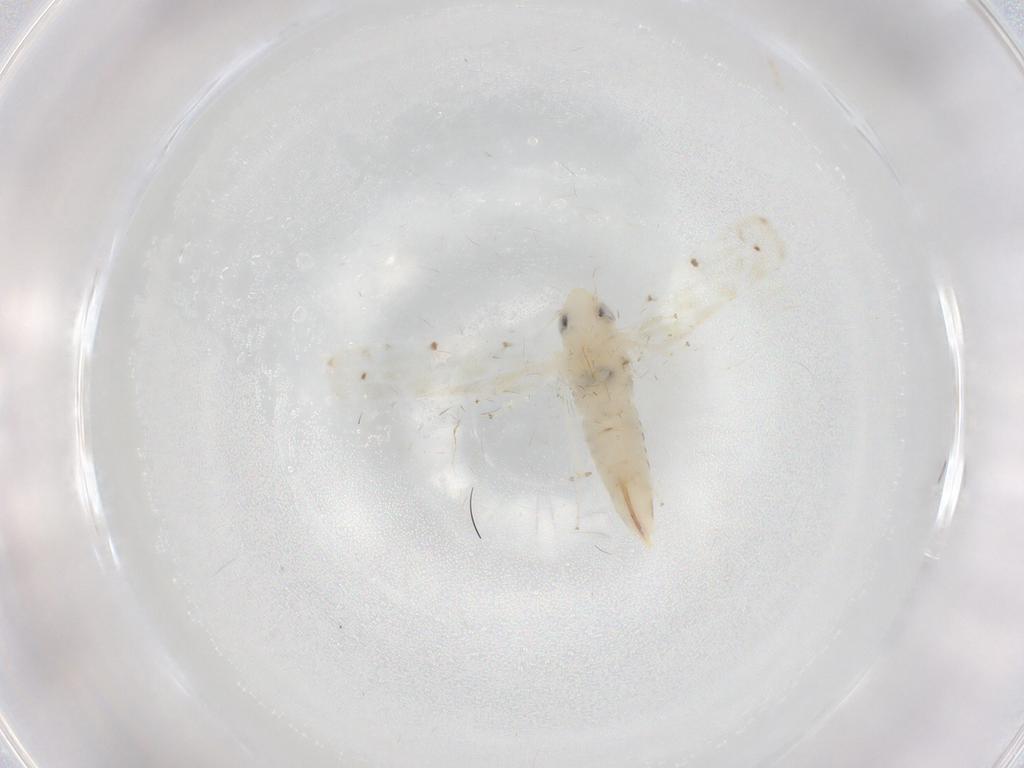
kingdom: Animalia
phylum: Arthropoda
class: Insecta
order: Hemiptera
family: Cicadellidae
